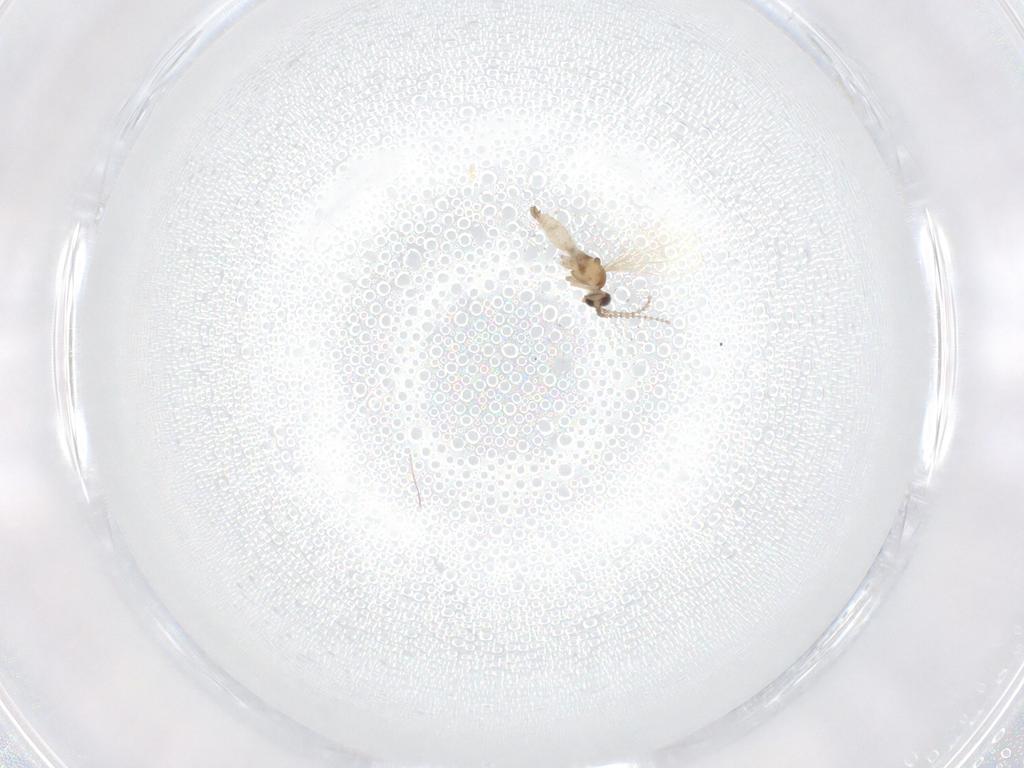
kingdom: Animalia
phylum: Arthropoda
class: Insecta
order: Diptera
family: Cecidomyiidae
